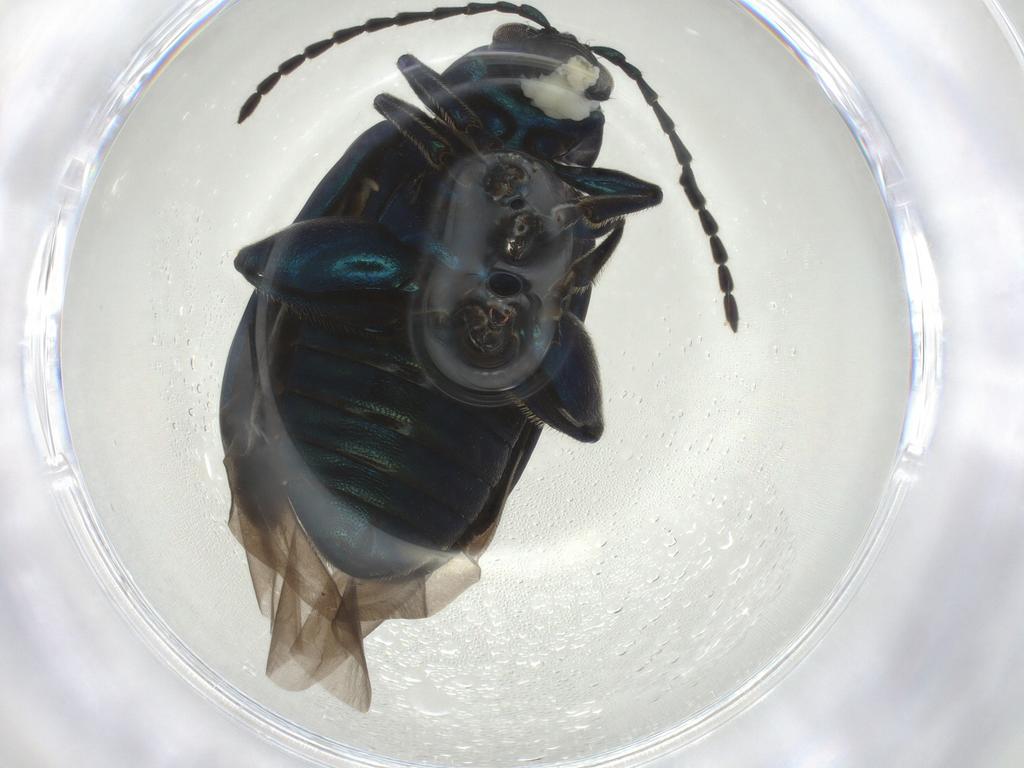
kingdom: Animalia
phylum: Arthropoda
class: Insecta
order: Coleoptera
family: Chrysomelidae
